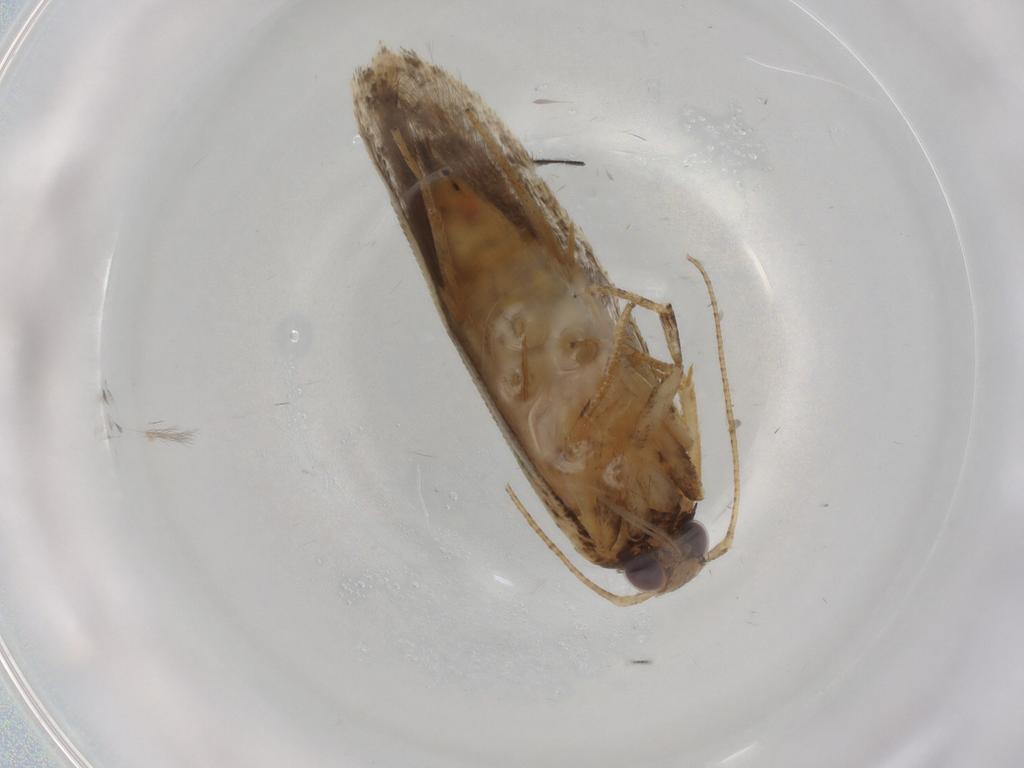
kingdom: Animalia
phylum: Arthropoda
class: Insecta
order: Lepidoptera
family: Gelechiidae
